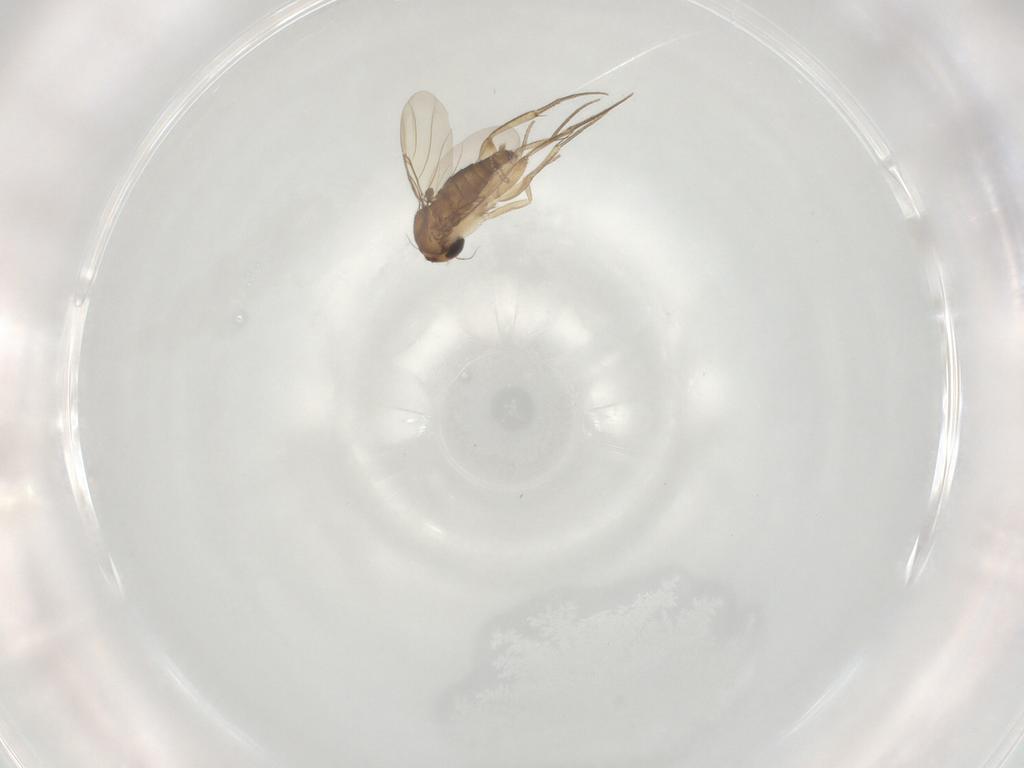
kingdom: Animalia
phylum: Arthropoda
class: Insecta
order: Diptera
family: Phoridae
